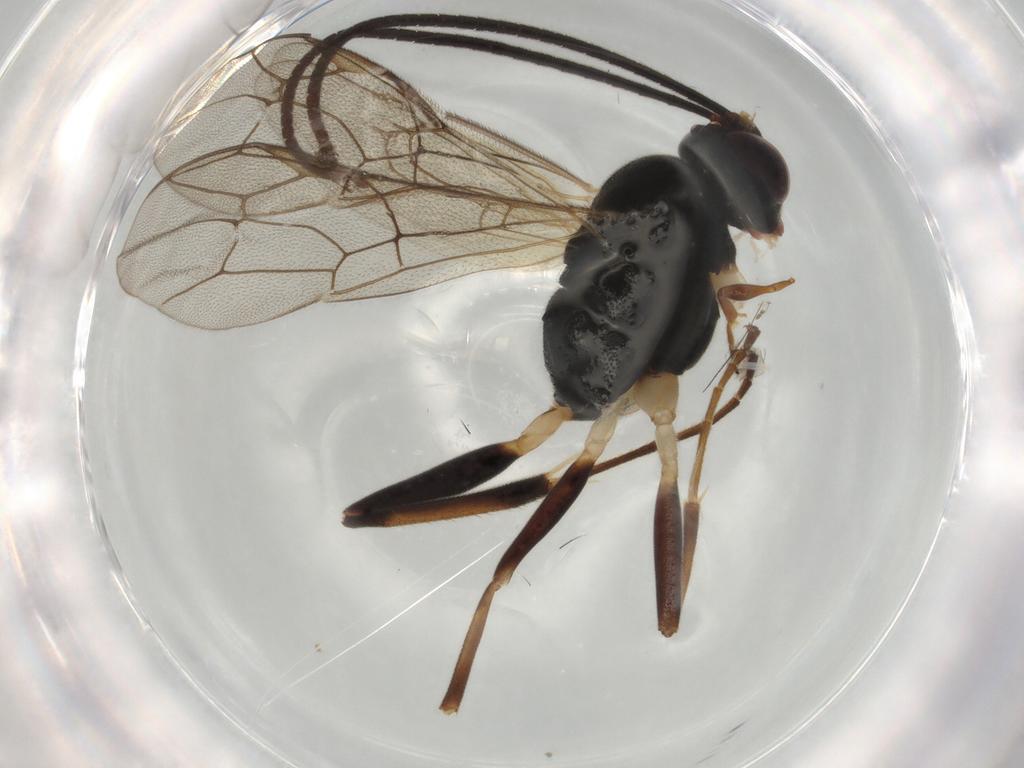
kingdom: Animalia
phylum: Arthropoda
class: Insecta
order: Hymenoptera
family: Ichneumonidae
